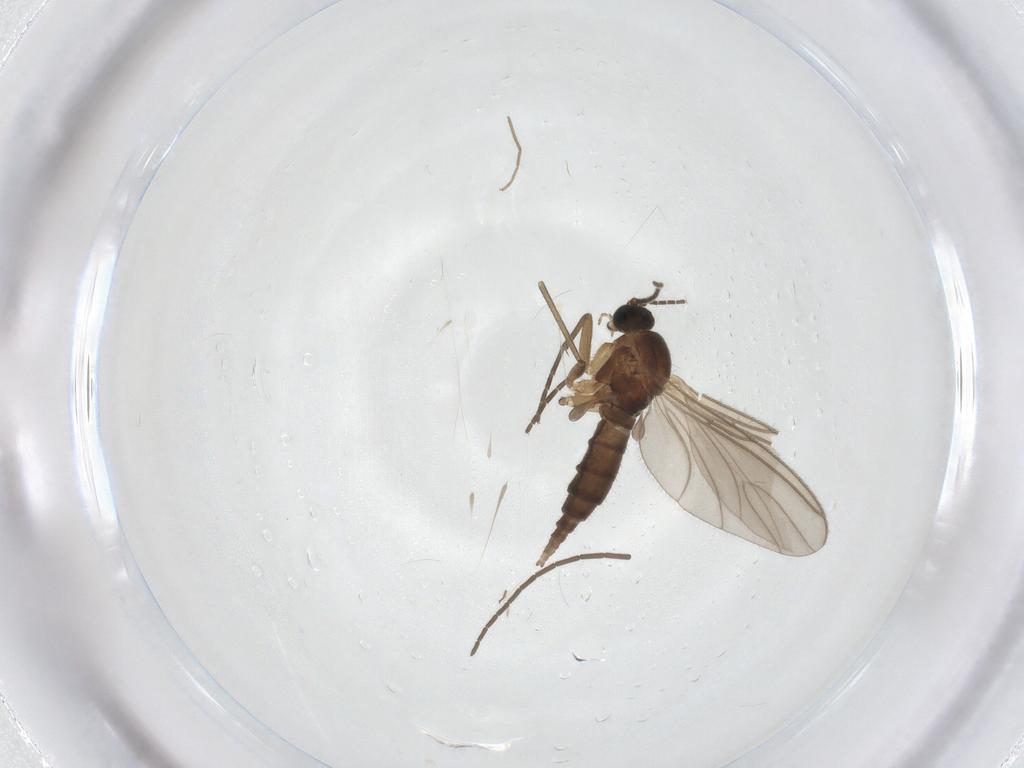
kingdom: Animalia
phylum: Arthropoda
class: Insecta
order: Diptera
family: Sciaridae
